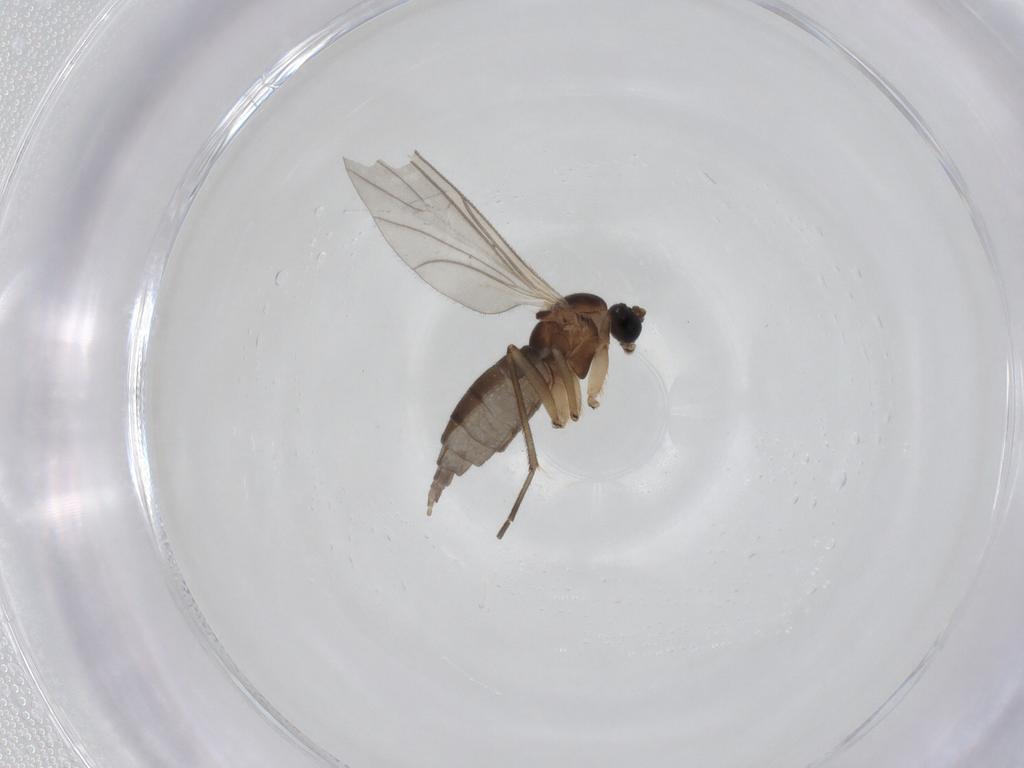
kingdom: Animalia
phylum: Arthropoda
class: Insecta
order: Diptera
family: Sciaridae
